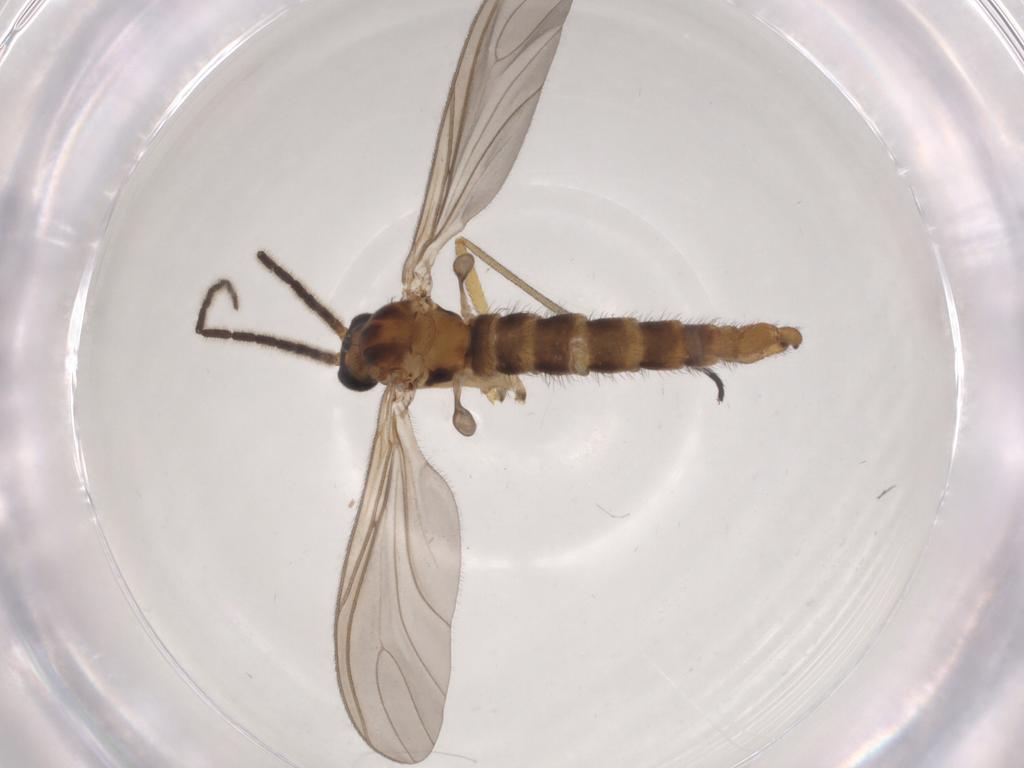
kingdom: Animalia
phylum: Arthropoda
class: Insecta
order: Diptera
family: Sciaridae
